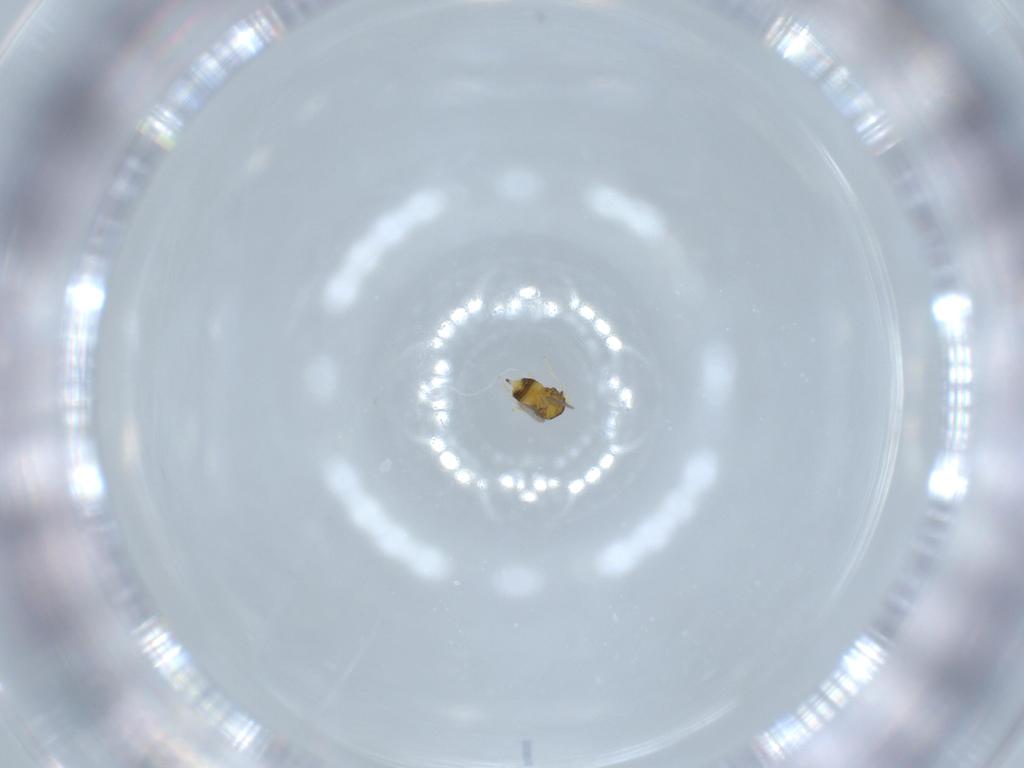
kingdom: Animalia
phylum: Arthropoda
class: Insecta
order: Hymenoptera
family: Aphelinidae
